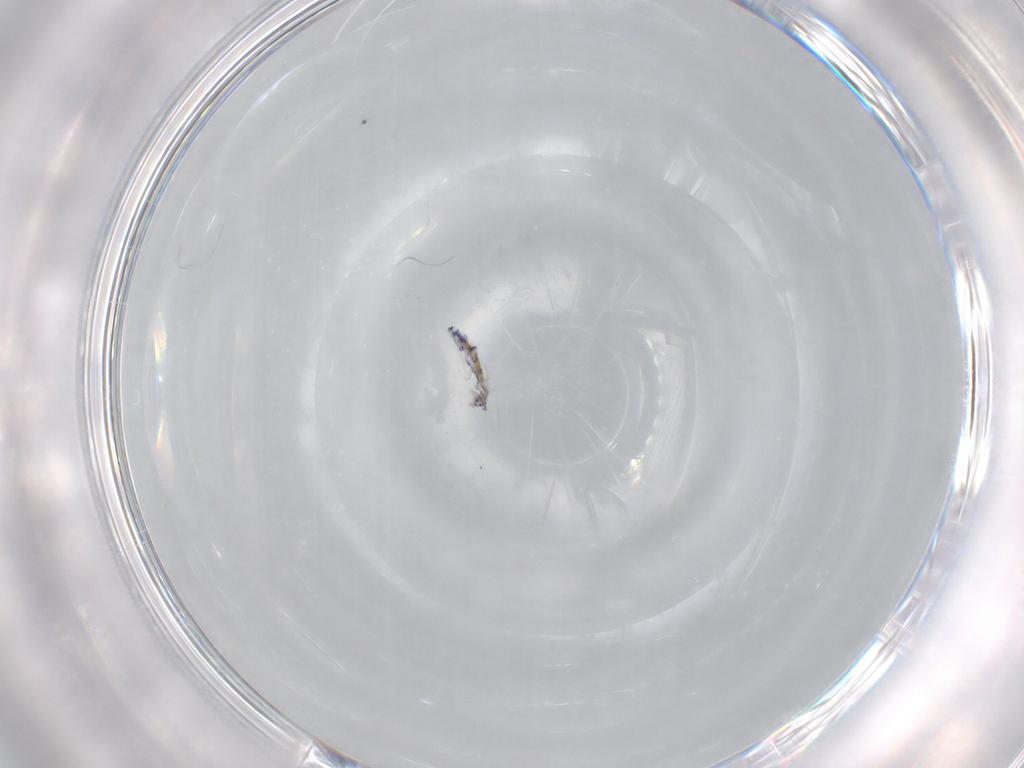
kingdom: Animalia
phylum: Arthropoda
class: Collembola
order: Entomobryomorpha
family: Entomobryidae
